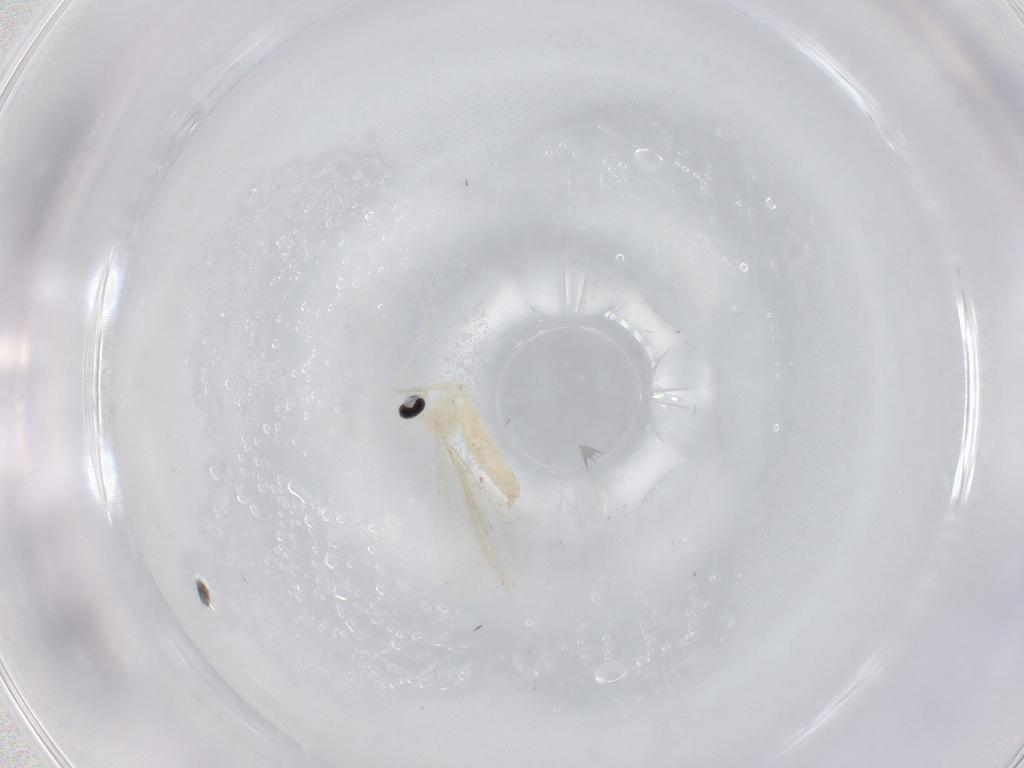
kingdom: Animalia
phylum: Arthropoda
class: Insecta
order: Diptera
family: Cecidomyiidae
